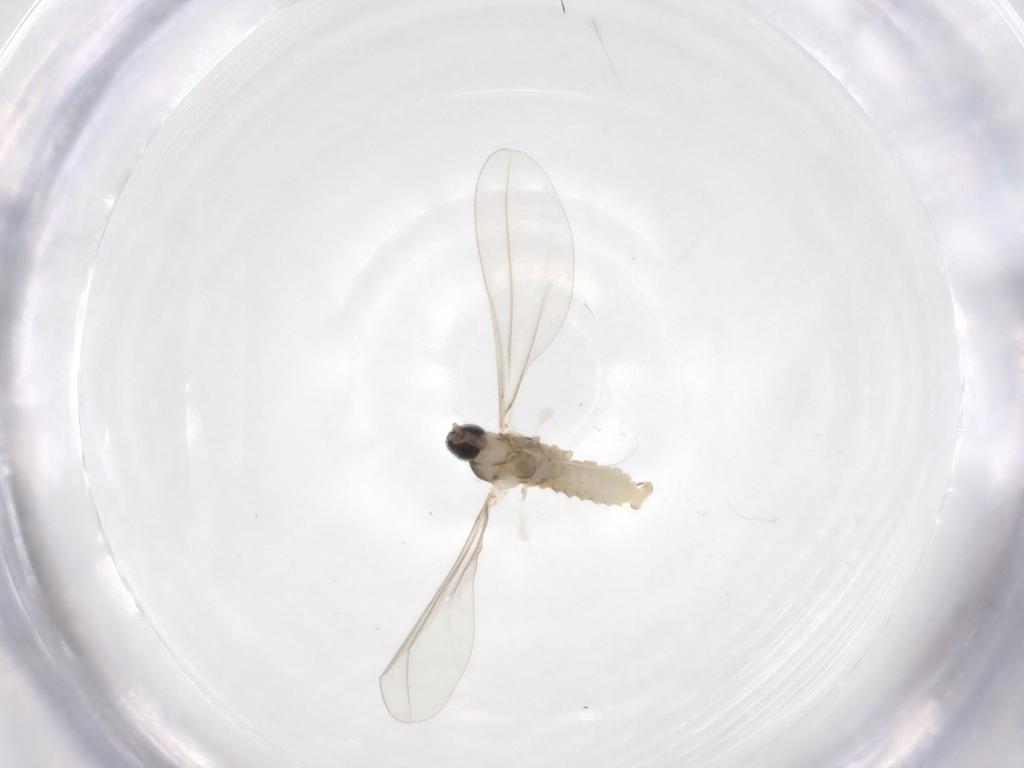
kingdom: Animalia
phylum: Arthropoda
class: Insecta
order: Diptera
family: Cecidomyiidae
